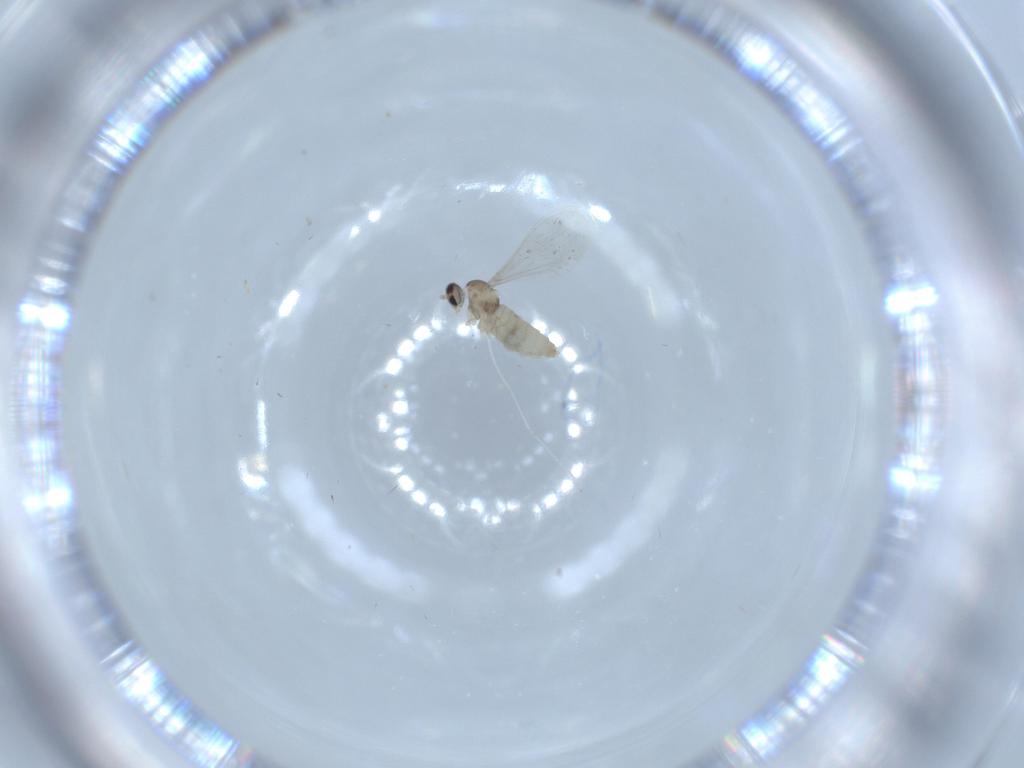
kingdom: Animalia
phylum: Arthropoda
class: Insecta
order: Diptera
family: Cecidomyiidae
